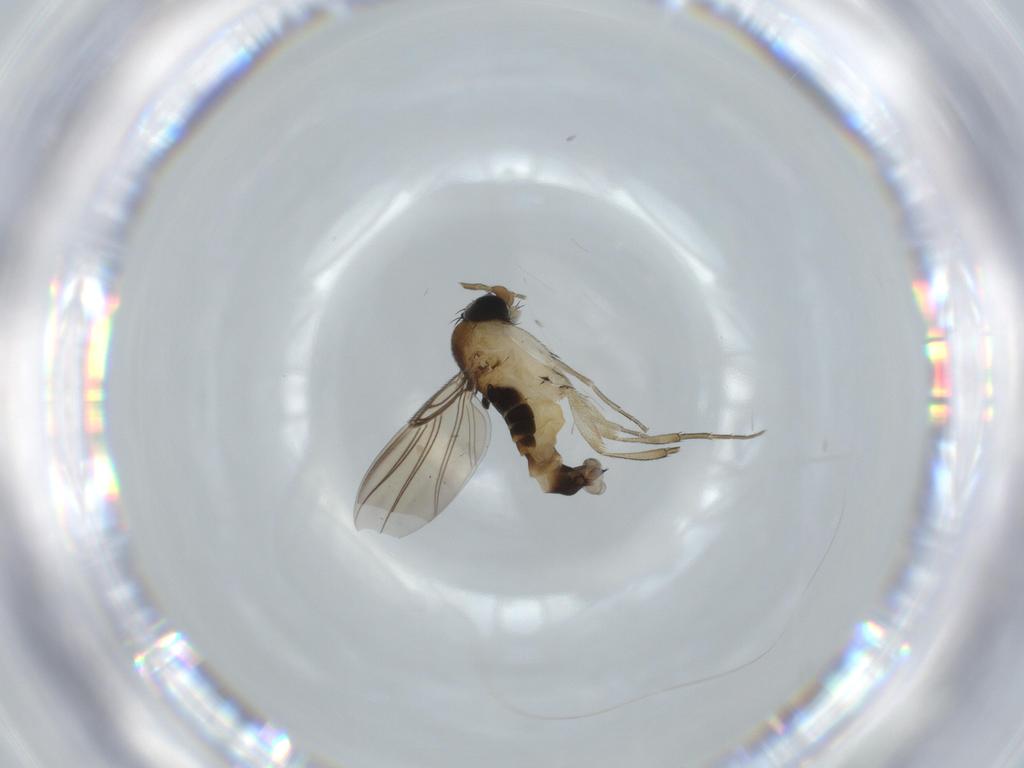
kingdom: Animalia
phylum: Arthropoda
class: Insecta
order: Diptera
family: Phoridae
